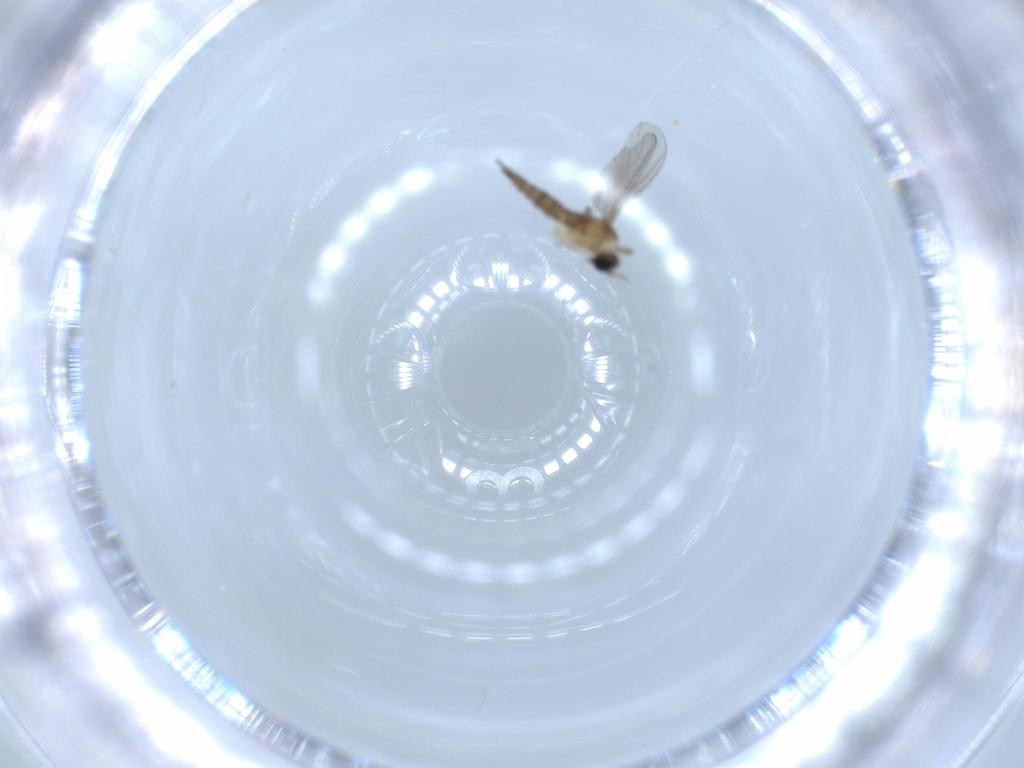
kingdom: Animalia
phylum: Arthropoda
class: Insecta
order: Diptera
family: Sciaridae
